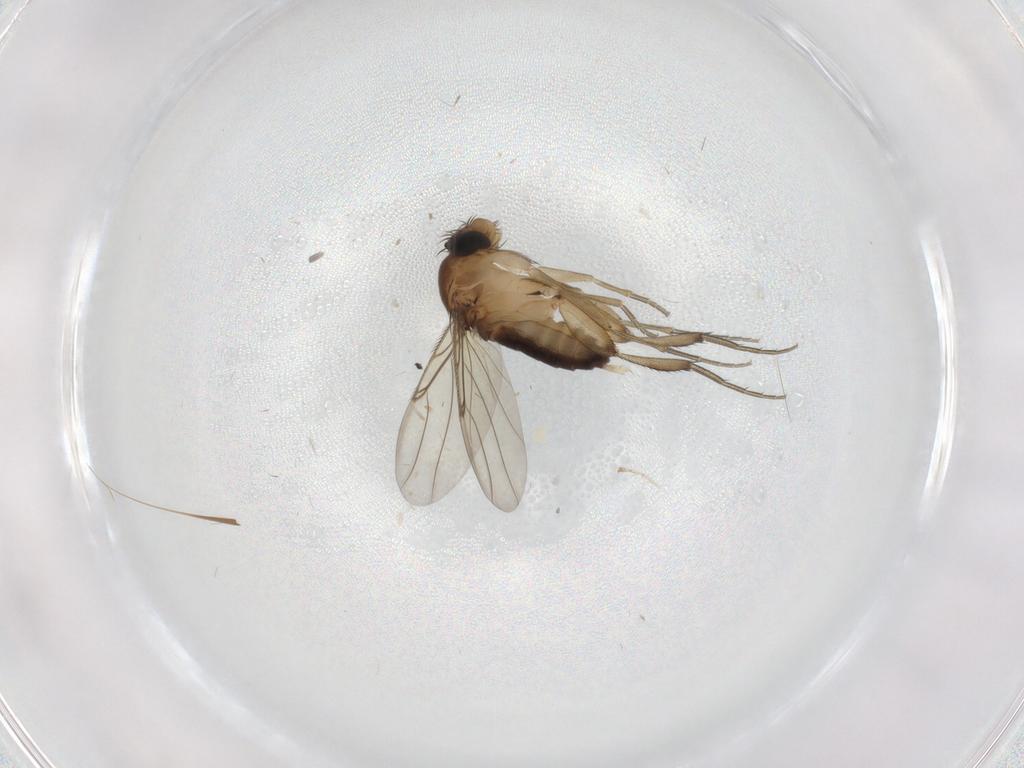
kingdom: Animalia
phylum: Arthropoda
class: Insecta
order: Diptera
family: Phoridae
